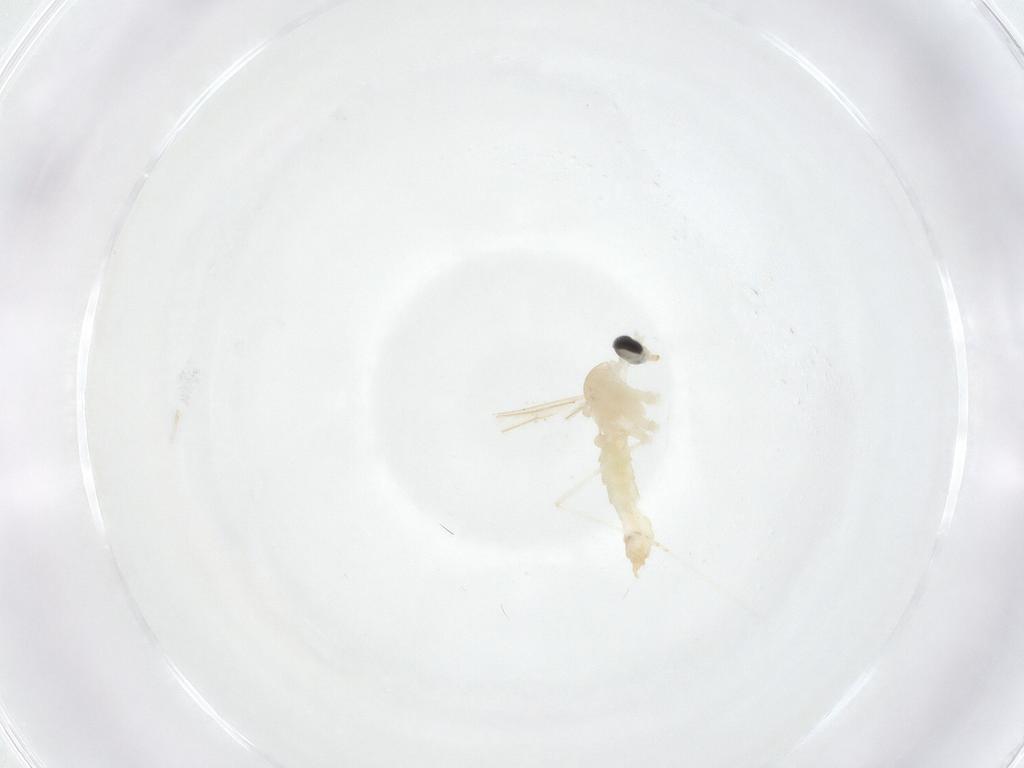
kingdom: Animalia
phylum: Arthropoda
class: Insecta
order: Diptera
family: Cecidomyiidae
